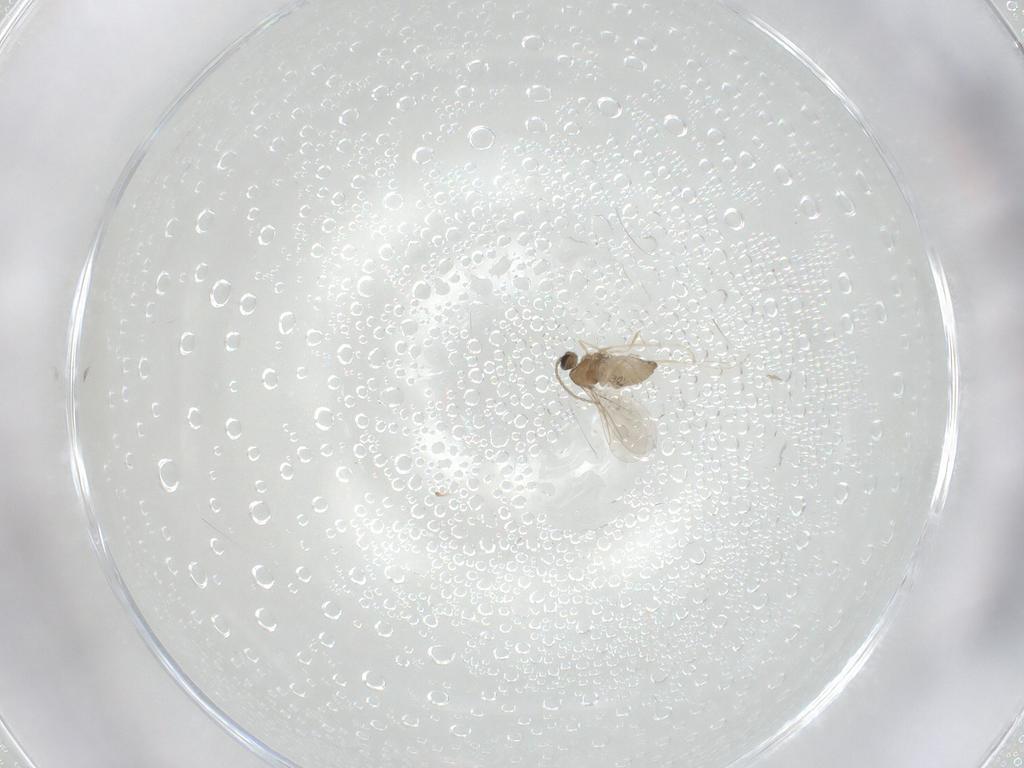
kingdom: Animalia
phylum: Arthropoda
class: Insecta
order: Diptera
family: Cecidomyiidae
